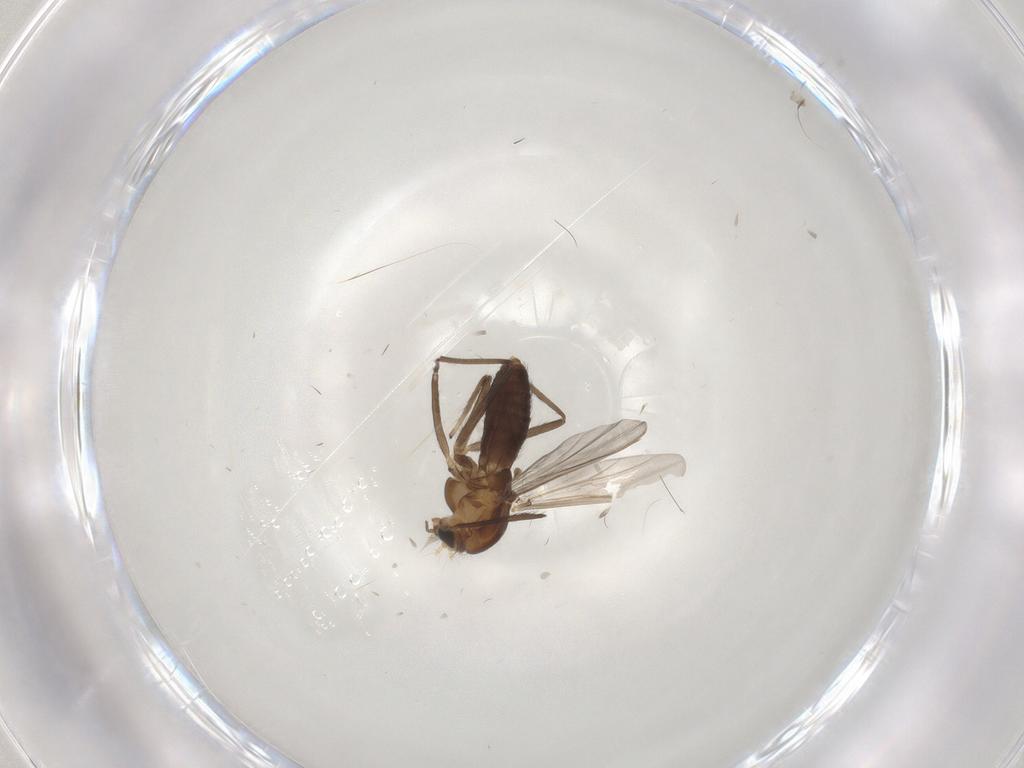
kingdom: Animalia
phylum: Arthropoda
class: Insecta
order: Diptera
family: Chironomidae
